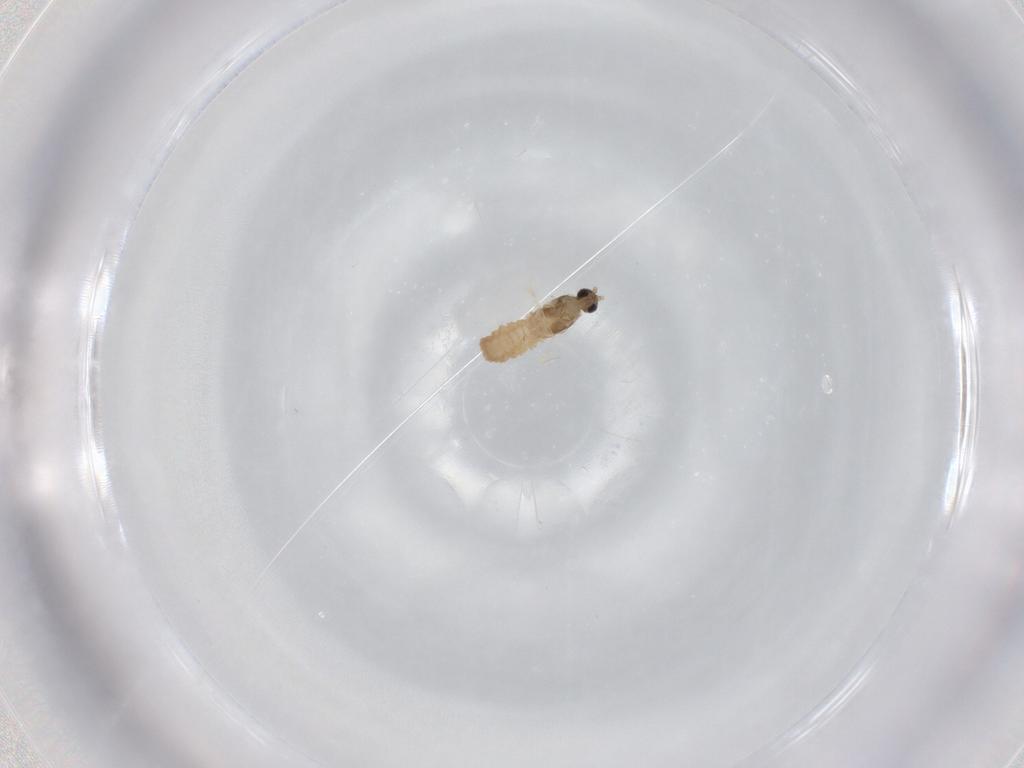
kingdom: Animalia
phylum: Arthropoda
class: Insecta
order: Diptera
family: Cecidomyiidae
